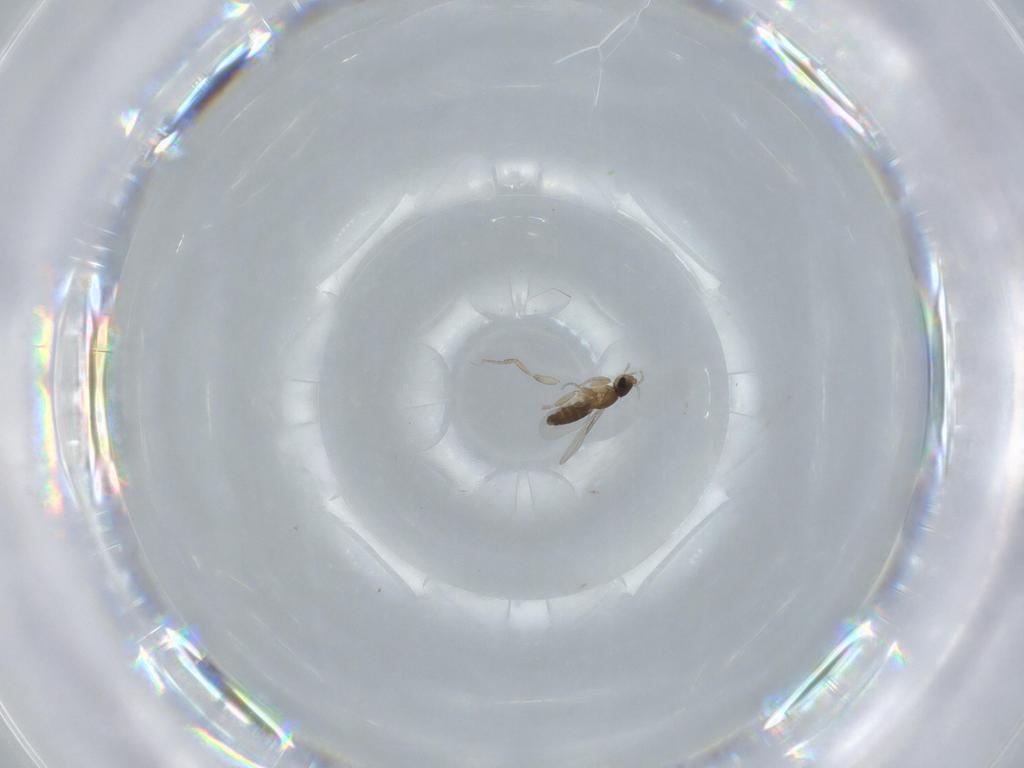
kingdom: Animalia
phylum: Arthropoda
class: Insecta
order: Diptera
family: Phoridae
